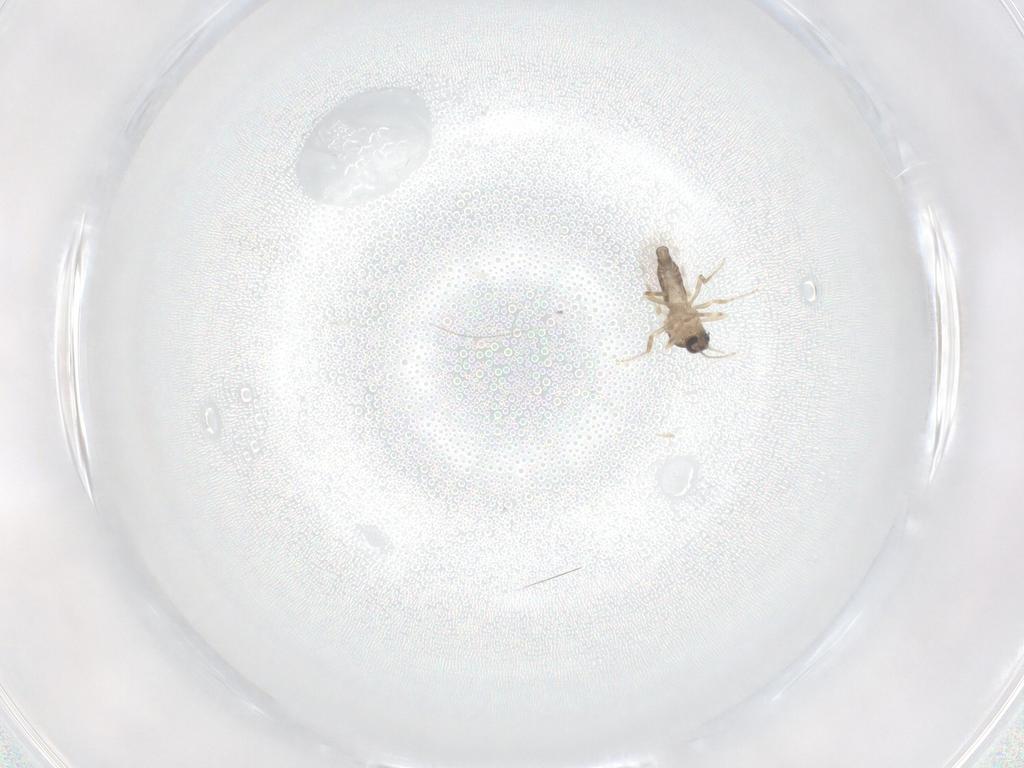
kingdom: Animalia
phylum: Arthropoda
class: Insecta
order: Diptera
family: Ceratopogonidae
